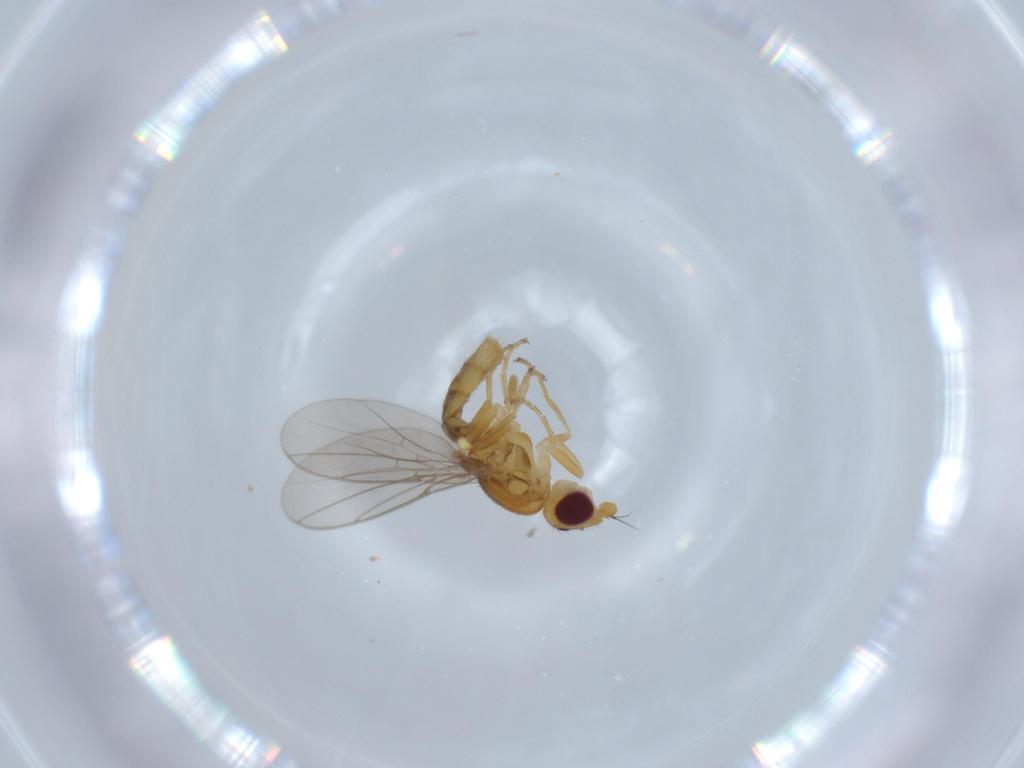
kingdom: Animalia
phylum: Arthropoda
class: Insecta
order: Diptera
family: Chloropidae
